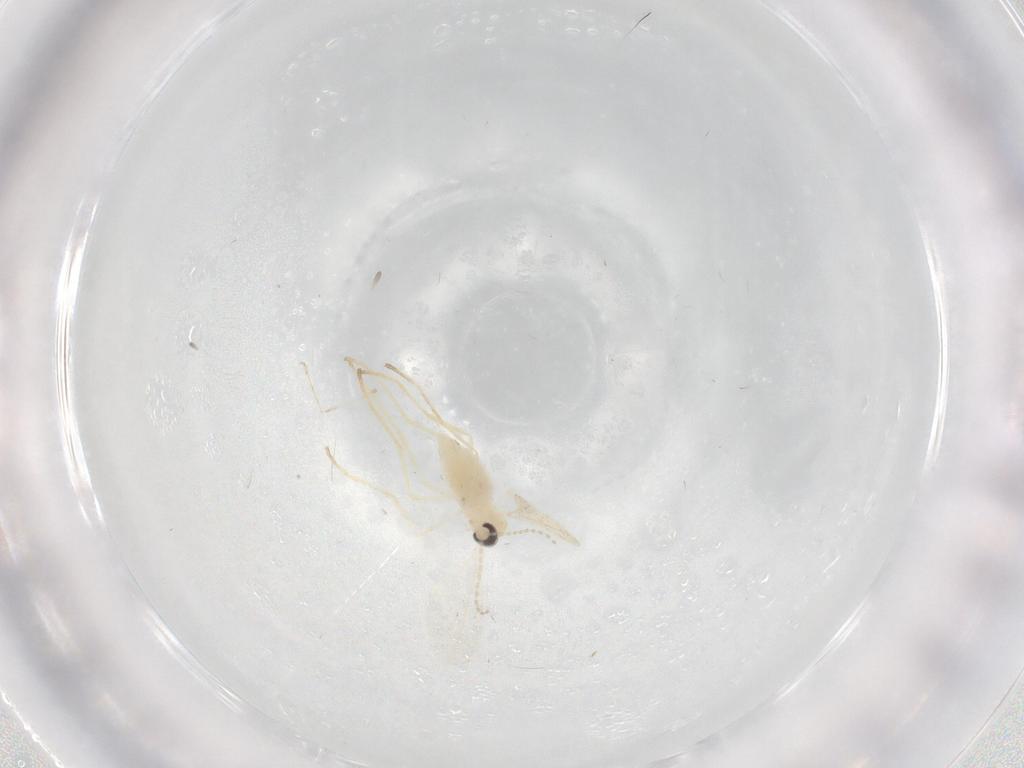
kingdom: Animalia
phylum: Arthropoda
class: Insecta
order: Diptera
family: Cecidomyiidae
